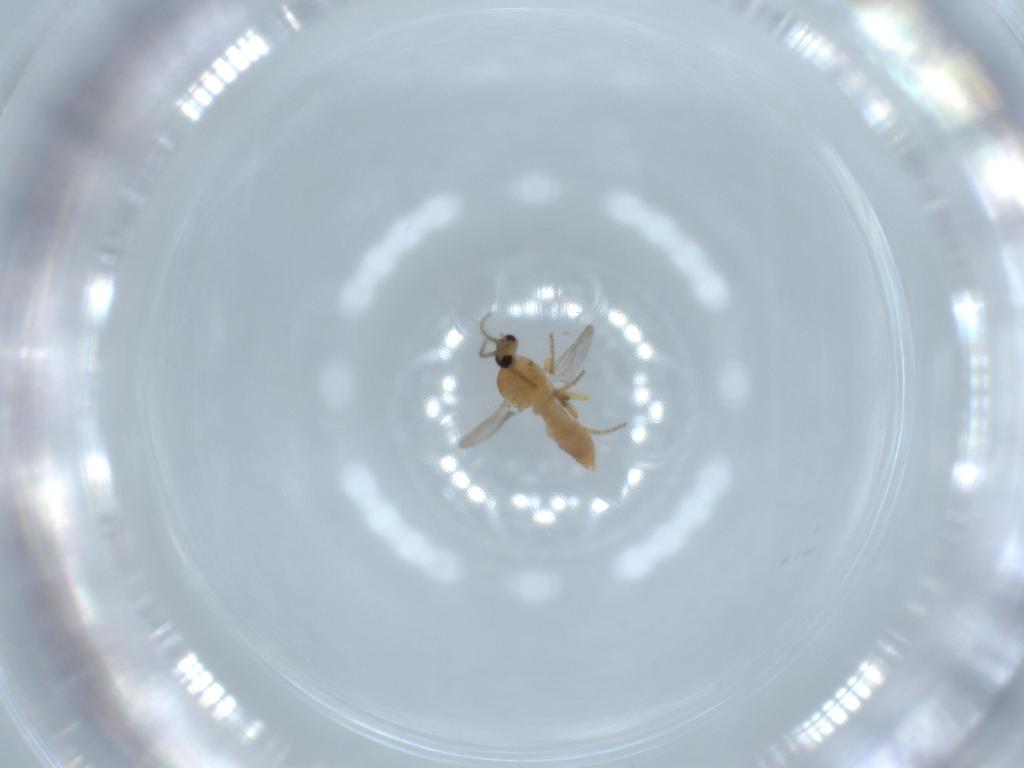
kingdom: Animalia
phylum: Arthropoda
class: Insecta
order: Diptera
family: Ceratopogonidae
